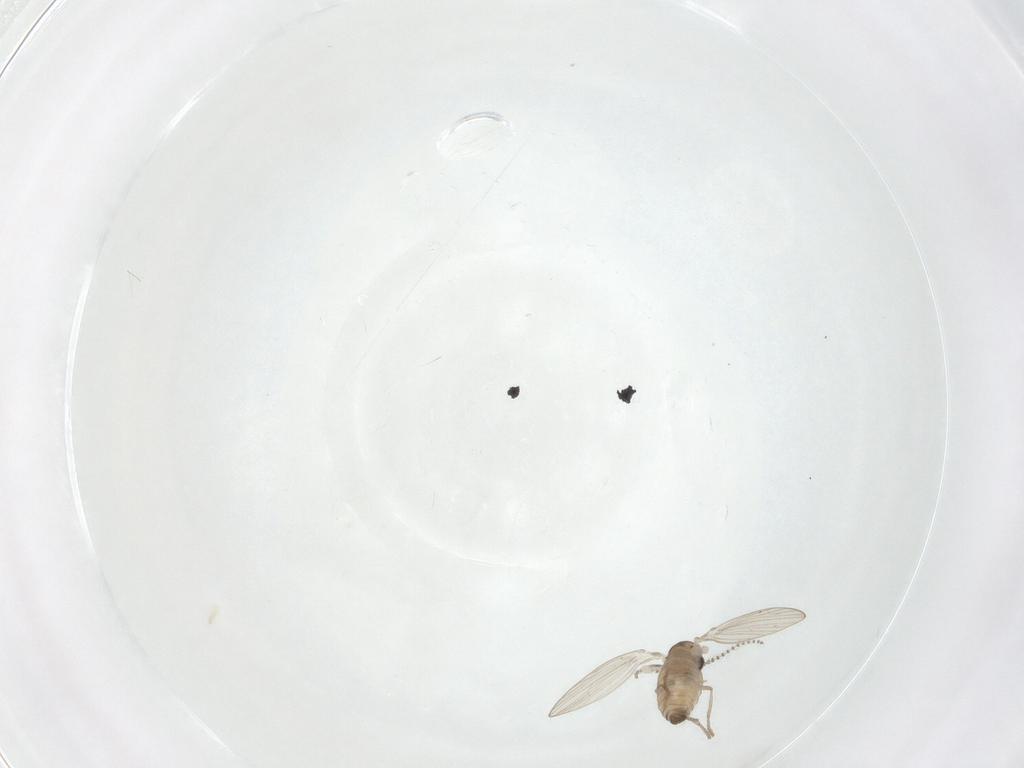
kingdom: Animalia
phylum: Arthropoda
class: Insecta
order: Diptera
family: Psychodidae
